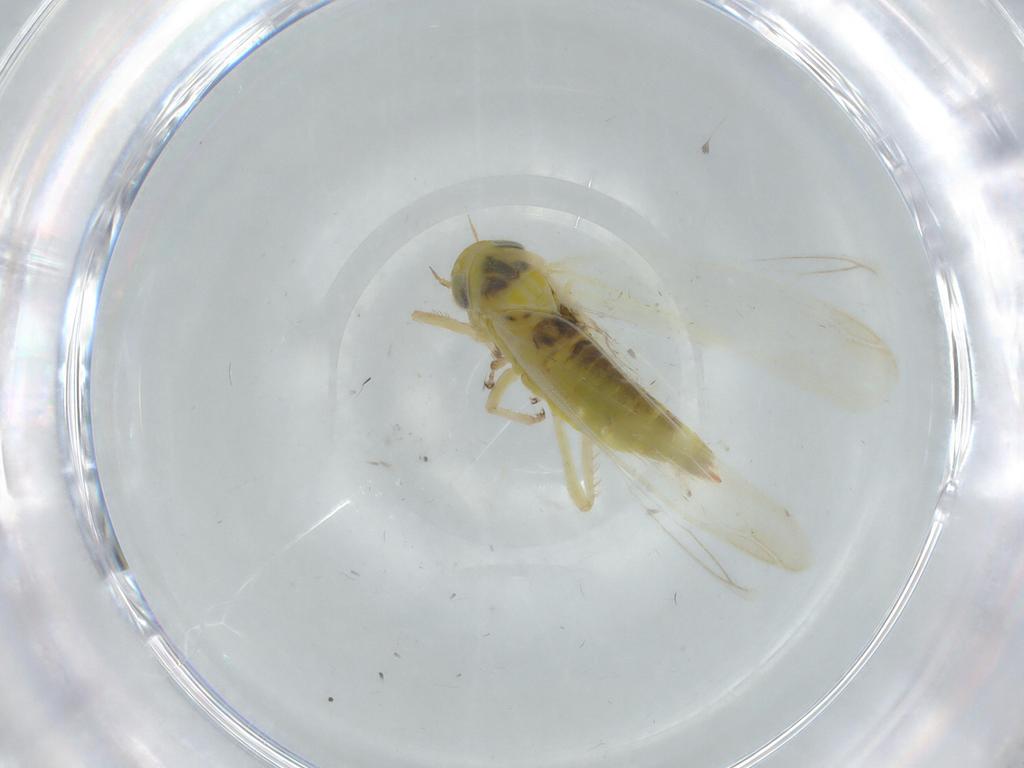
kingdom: Animalia
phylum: Arthropoda
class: Insecta
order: Hemiptera
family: Cicadellidae
